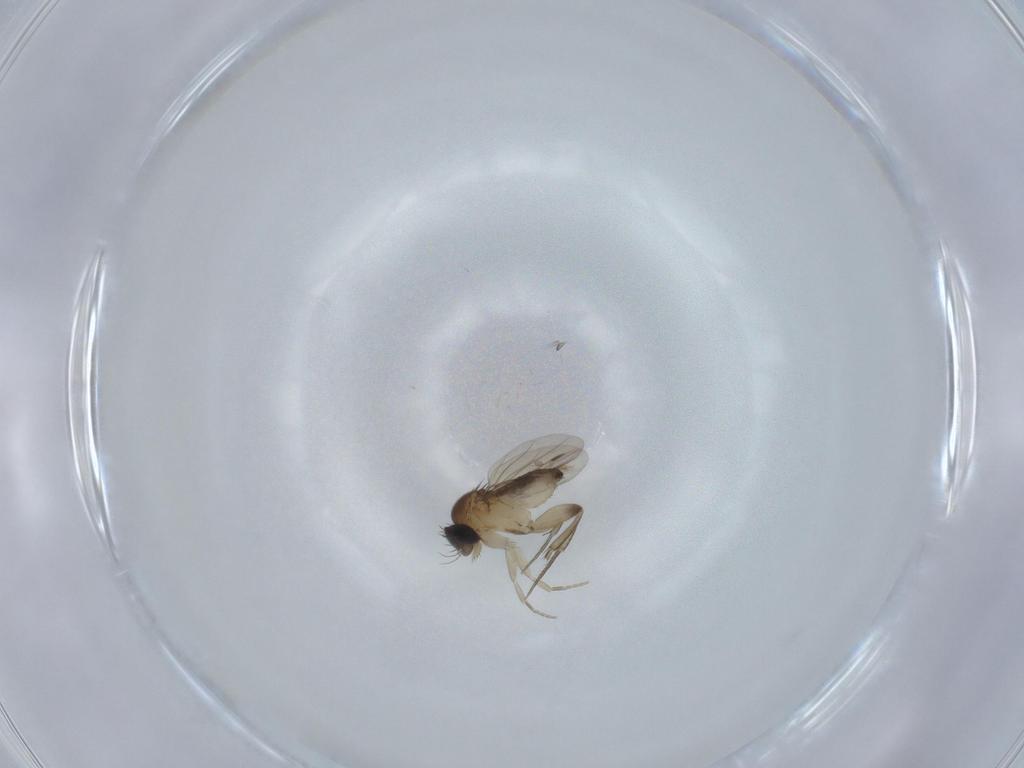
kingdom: Animalia
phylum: Arthropoda
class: Insecta
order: Diptera
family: Phoridae
